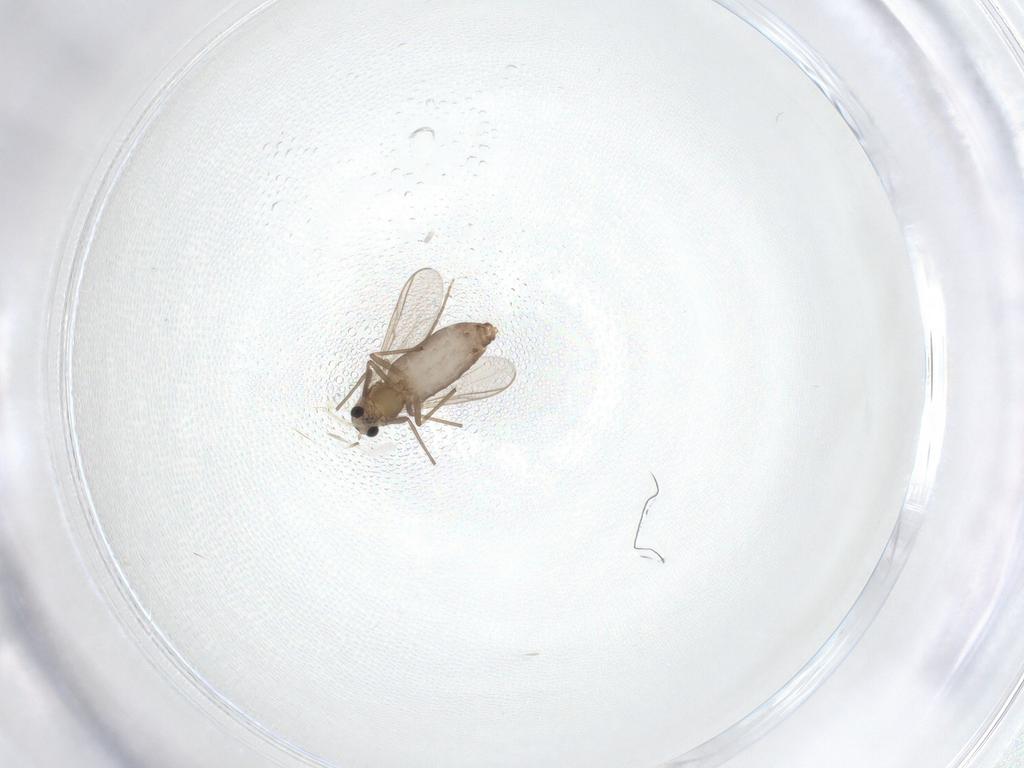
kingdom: Animalia
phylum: Arthropoda
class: Insecta
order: Diptera
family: Chironomidae
